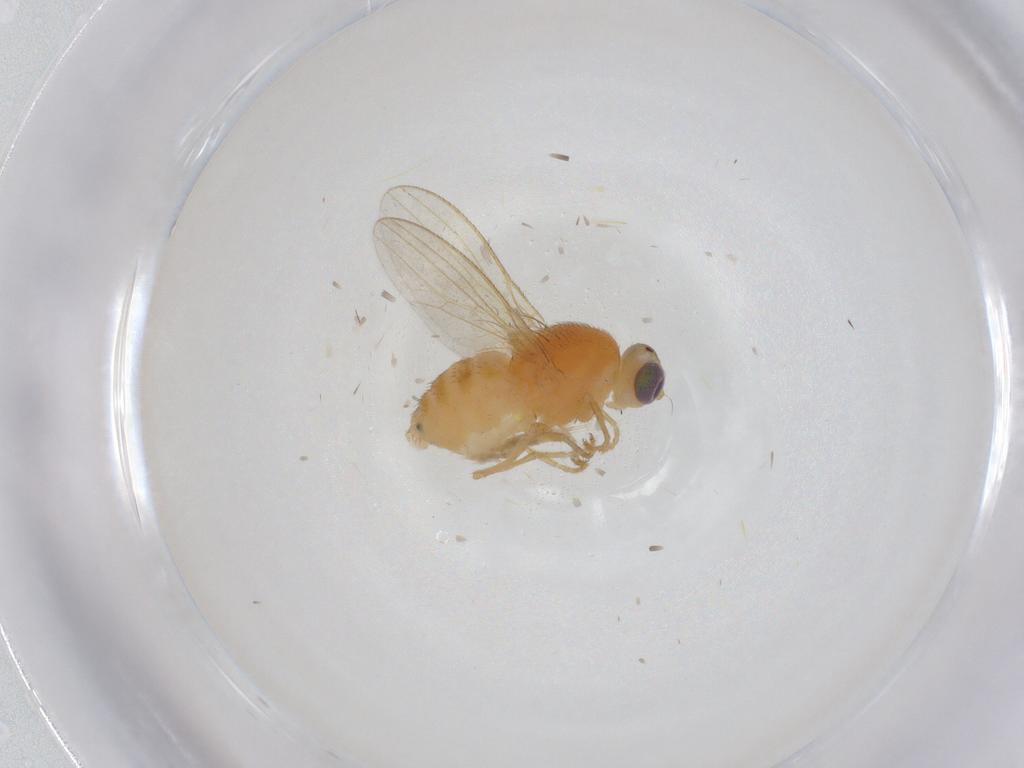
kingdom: Animalia
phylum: Arthropoda
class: Insecta
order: Diptera
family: Chyromyidae
